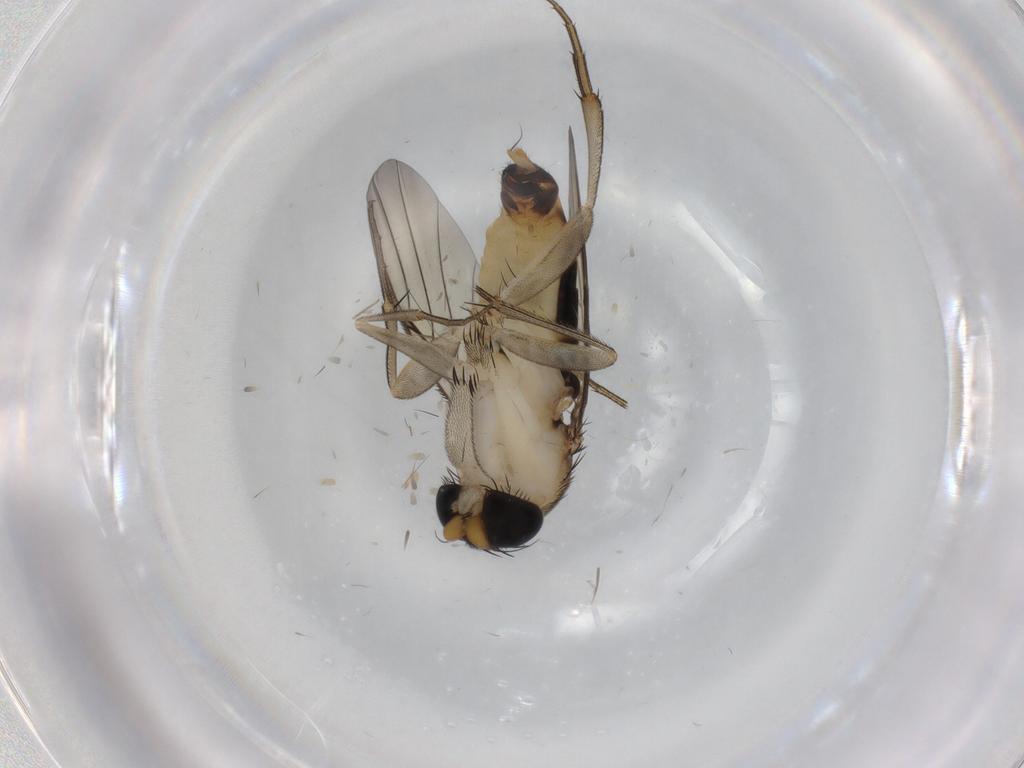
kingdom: Animalia
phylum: Arthropoda
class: Insecta
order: Diptera
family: Phoridae
